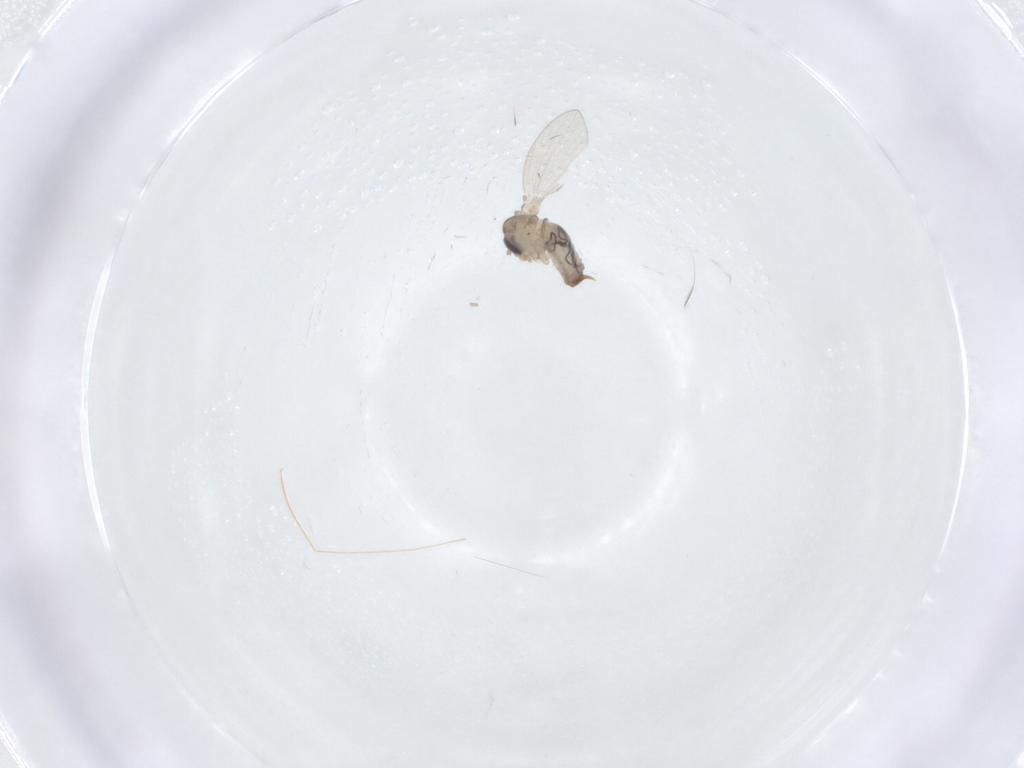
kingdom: Animalia
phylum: Arthropoda
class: Insecta
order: Diptera
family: Psychodidae
